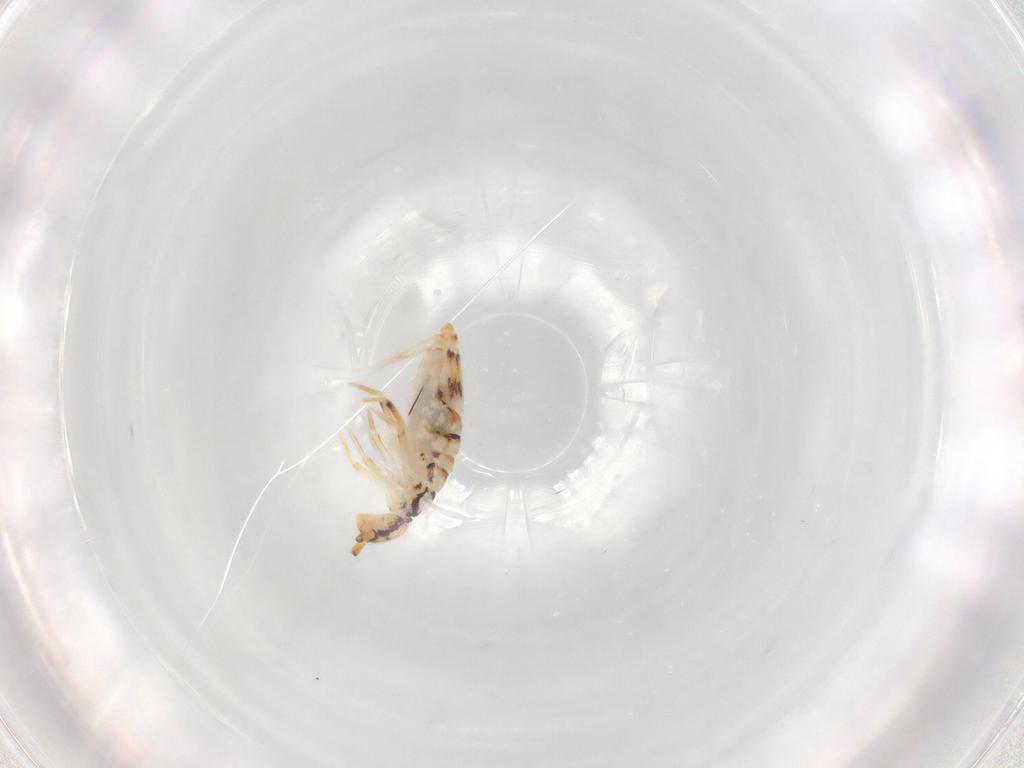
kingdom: Animalia
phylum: Arthropoda
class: Collembola
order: Entomobryomorpha
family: Entomobryidae
